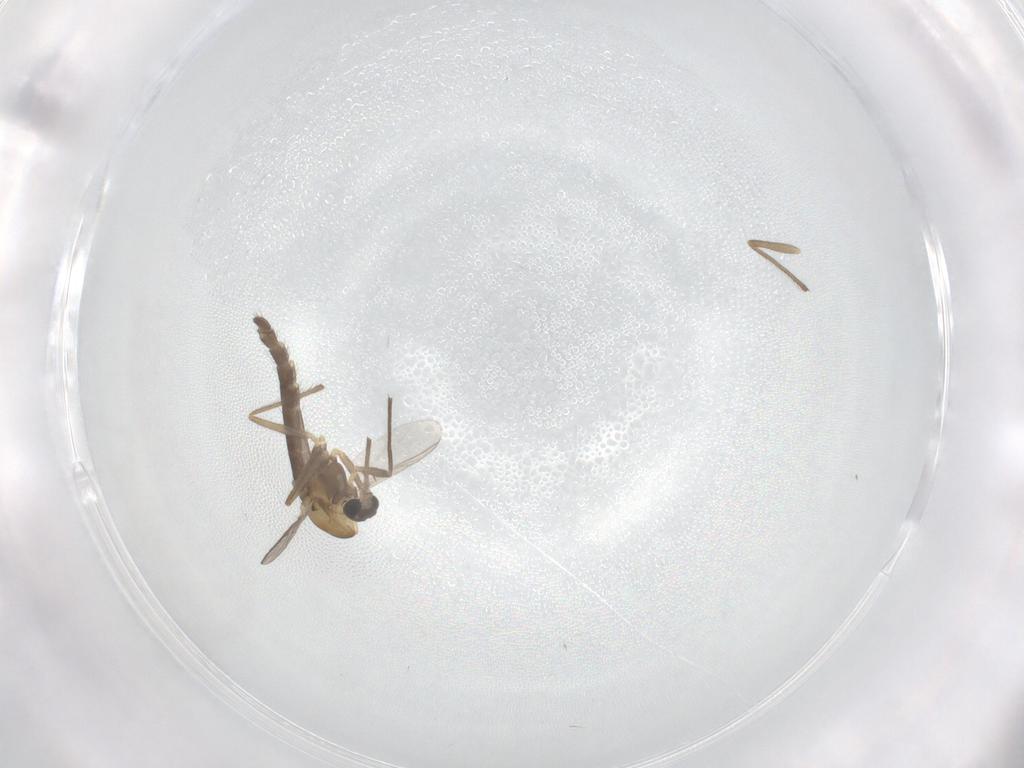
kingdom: Animalia
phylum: Arthropoda
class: Insecta
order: Diptera
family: Chironomidae
